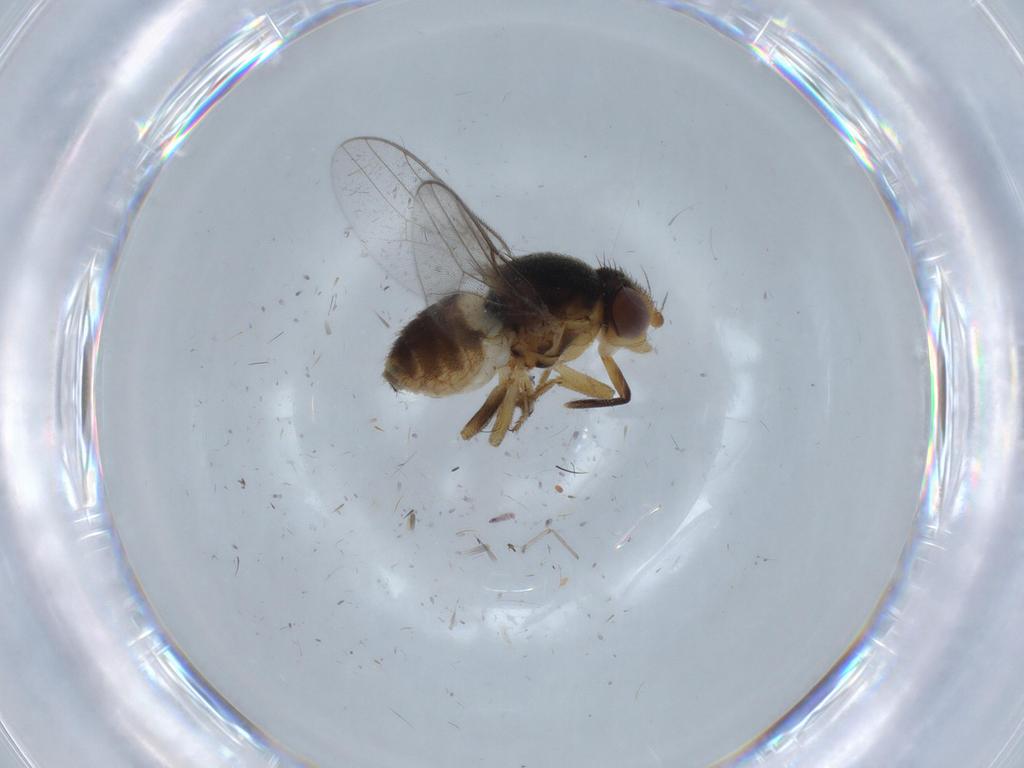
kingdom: Animalia
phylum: Arthropoda
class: Insecta
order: Diptera
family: Chloropidae
